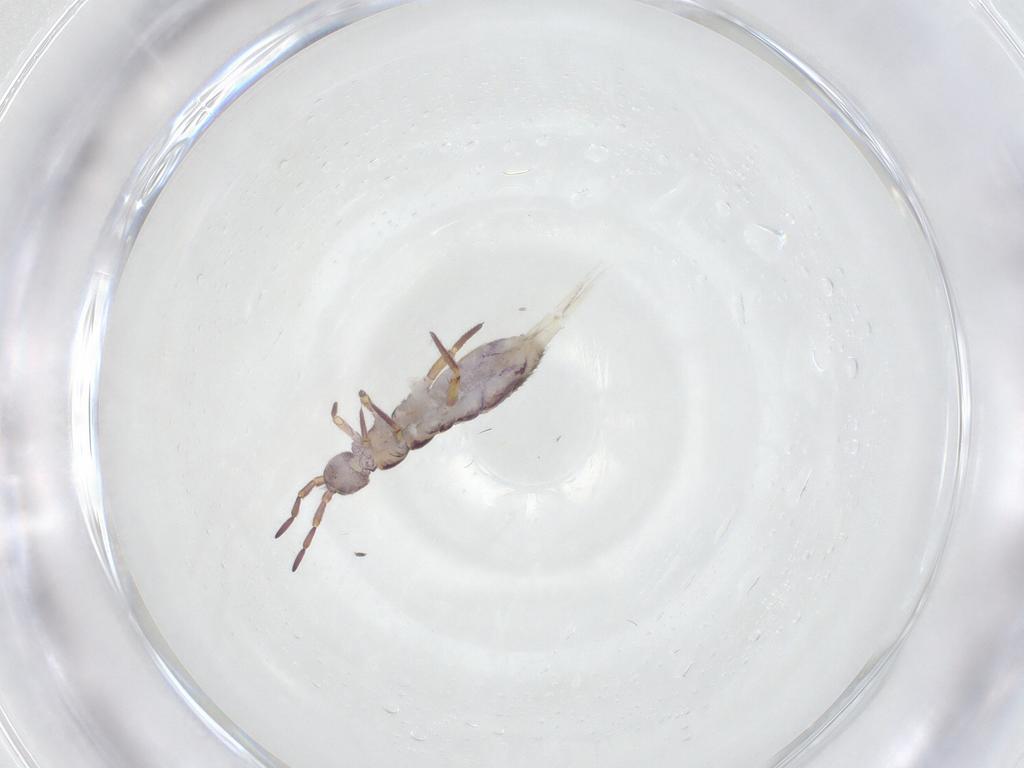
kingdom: Animalia
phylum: Arthropoda
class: Collembola
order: Entomobryomorpha
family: Isotomidae
